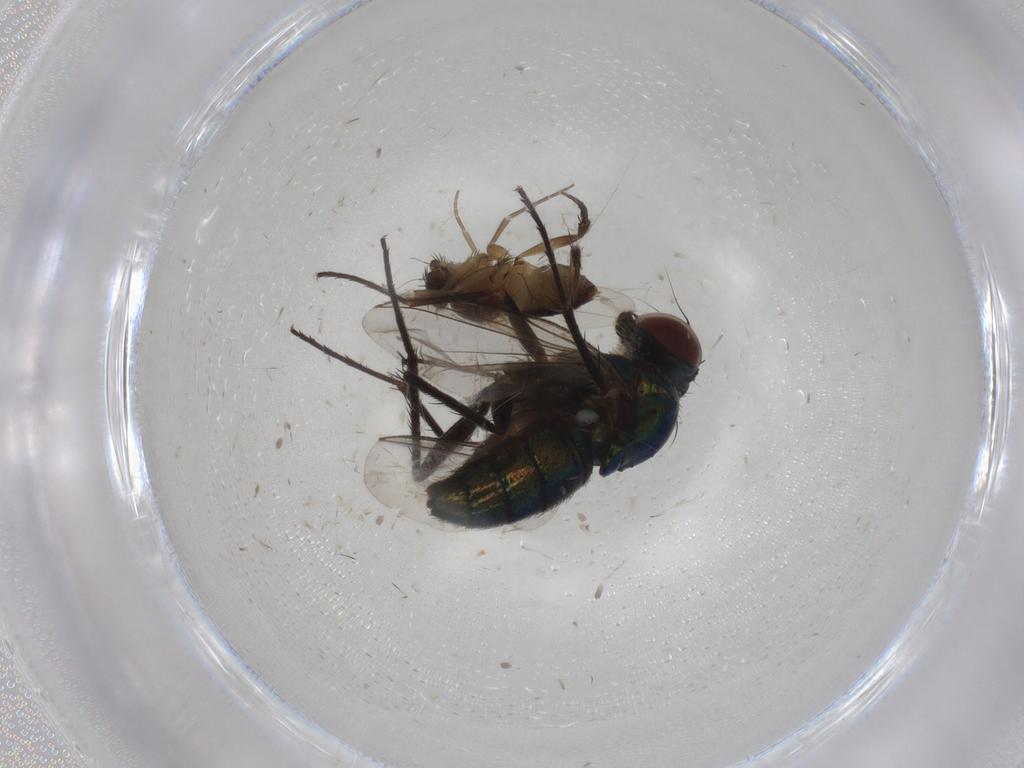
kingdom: Animalia
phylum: Arthropoda
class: Insecta
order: Diptera
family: Dolichopodidae
